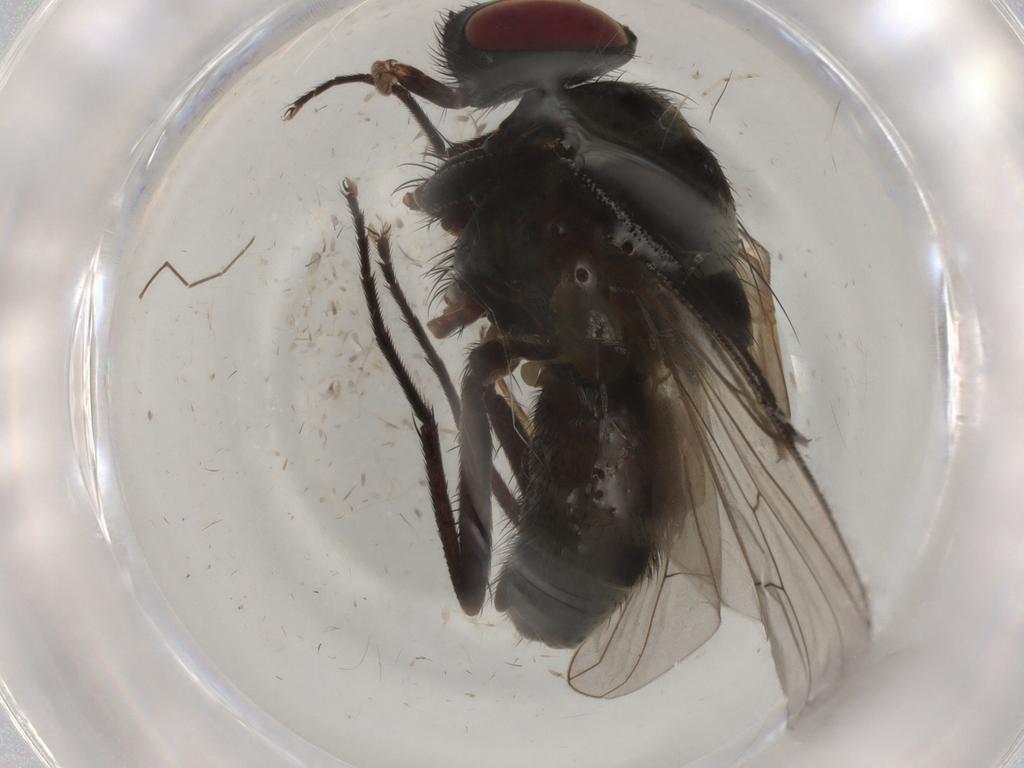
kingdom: Animalia
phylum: Arthropoda
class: Insecta
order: Diptera
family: Muscidae
